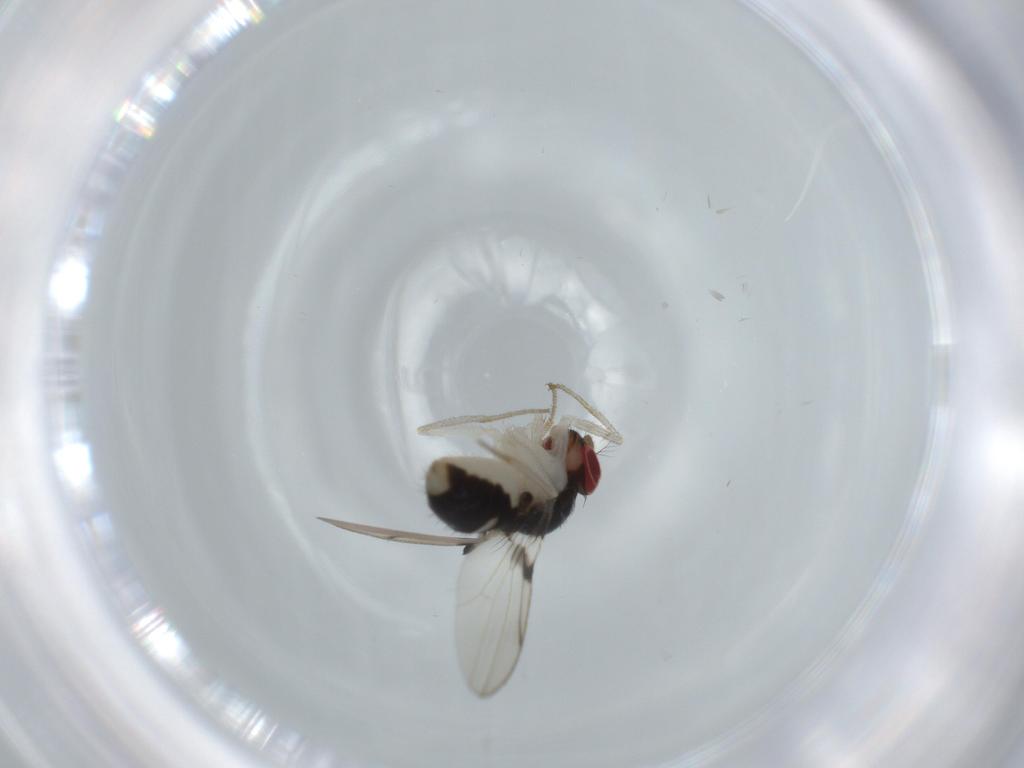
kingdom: Animalia
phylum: Arthropoda
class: Insecta
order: Diptera
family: Drosophilidae
